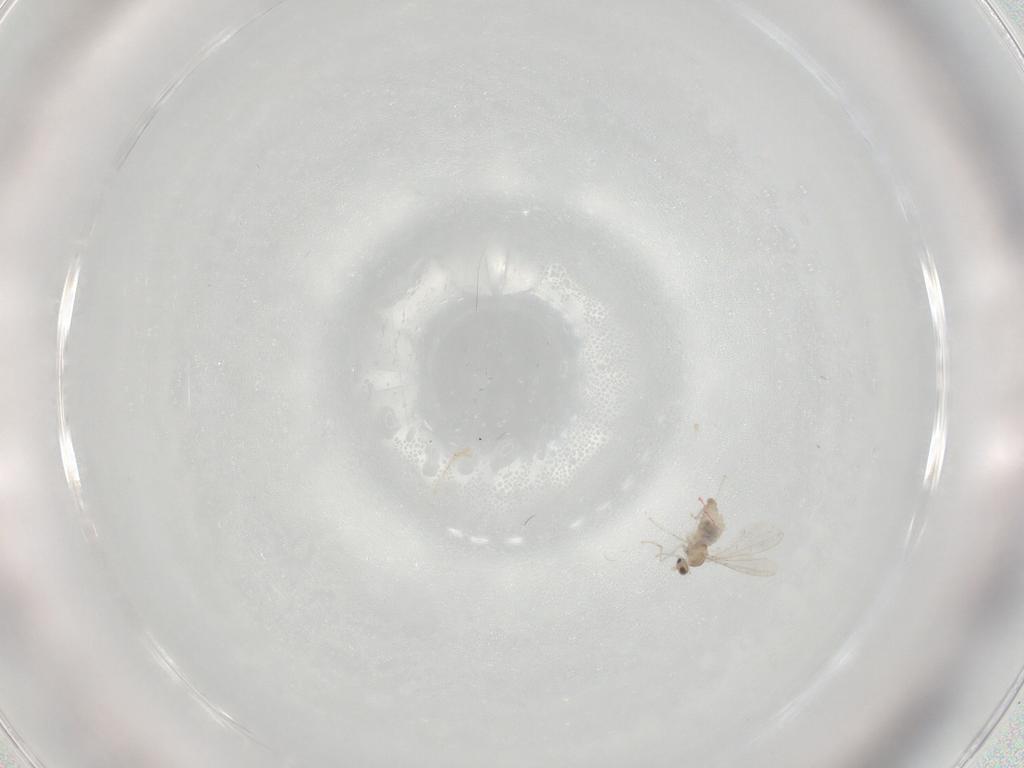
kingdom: Animalia
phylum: Arthropoda
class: Insecta
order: Diptera
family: Cecidomyiidae
